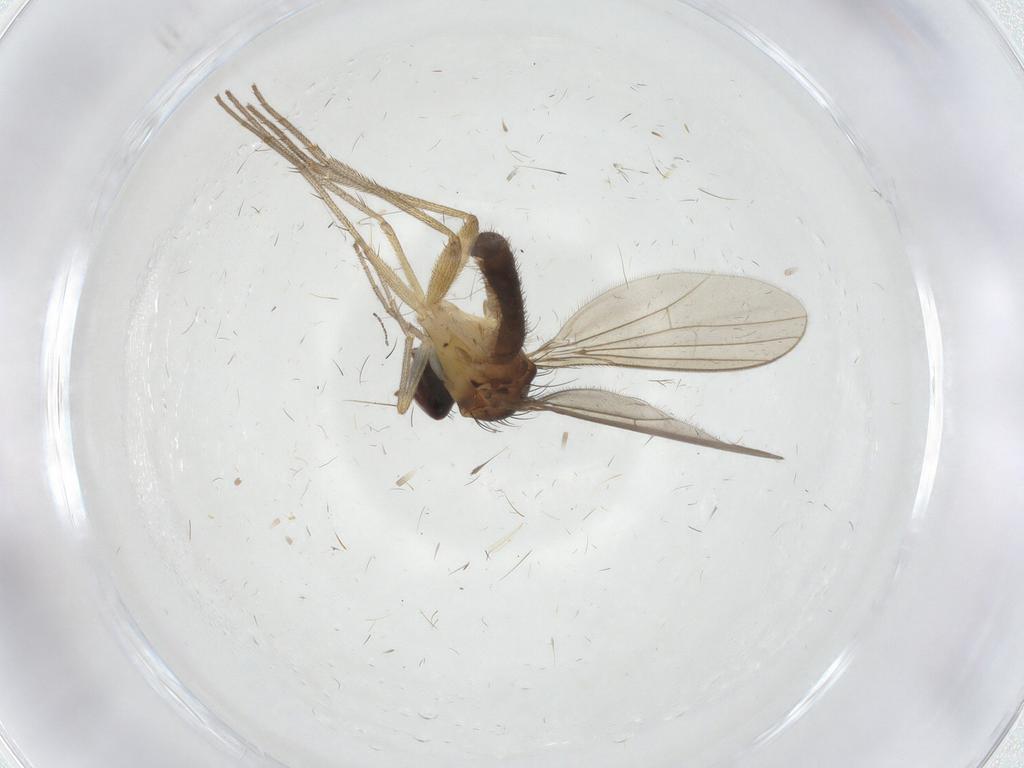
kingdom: Animalia
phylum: Arthropoda
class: Insecta
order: Diptera
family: Dolichopodidae
